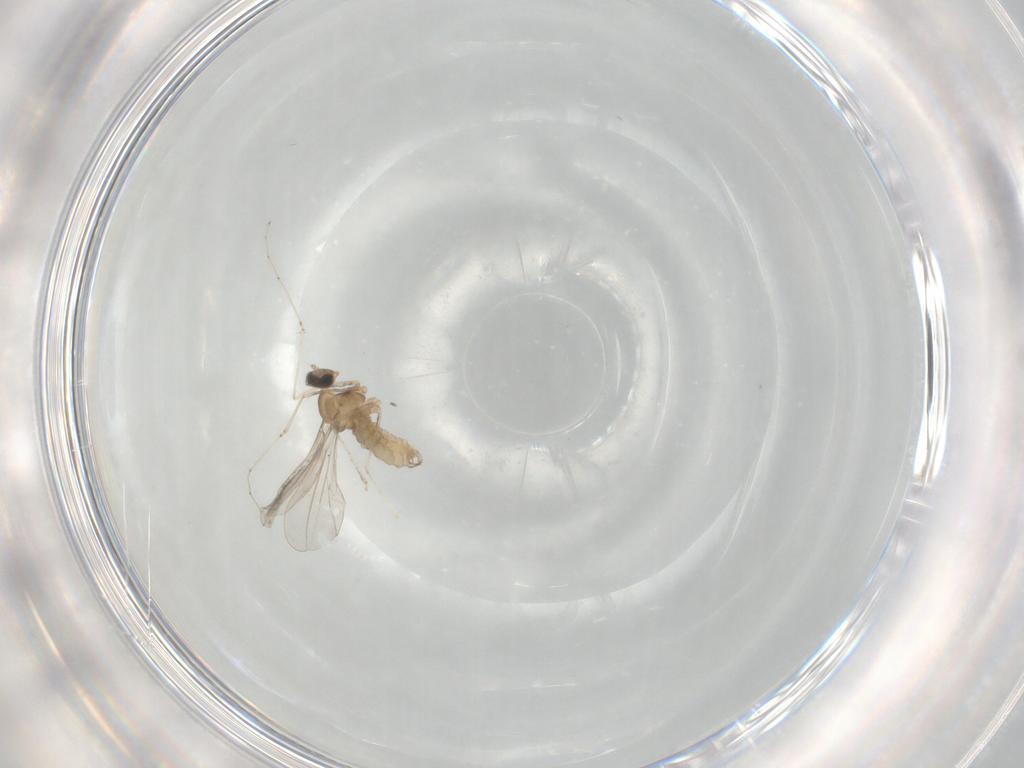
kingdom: Animalia
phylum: Arthropoda
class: Insecta
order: Diptera
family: Cecidomyiidae
